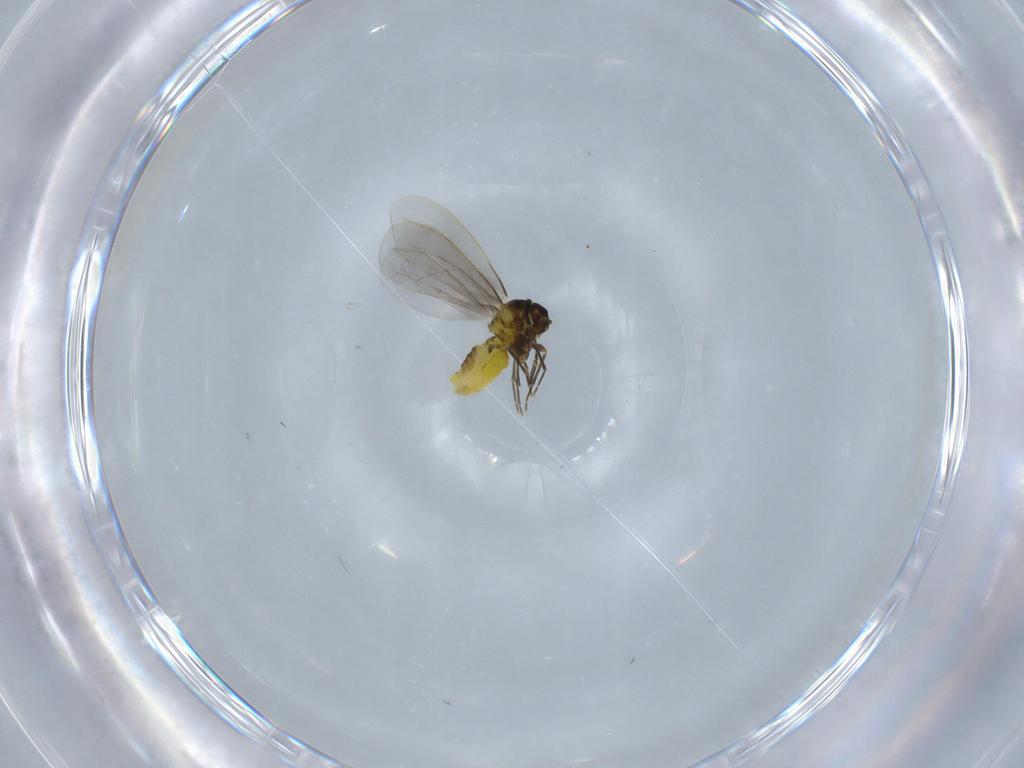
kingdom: Animalia
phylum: Arthropoda
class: Insecta
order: Hemiptera
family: Aleyrodidae
